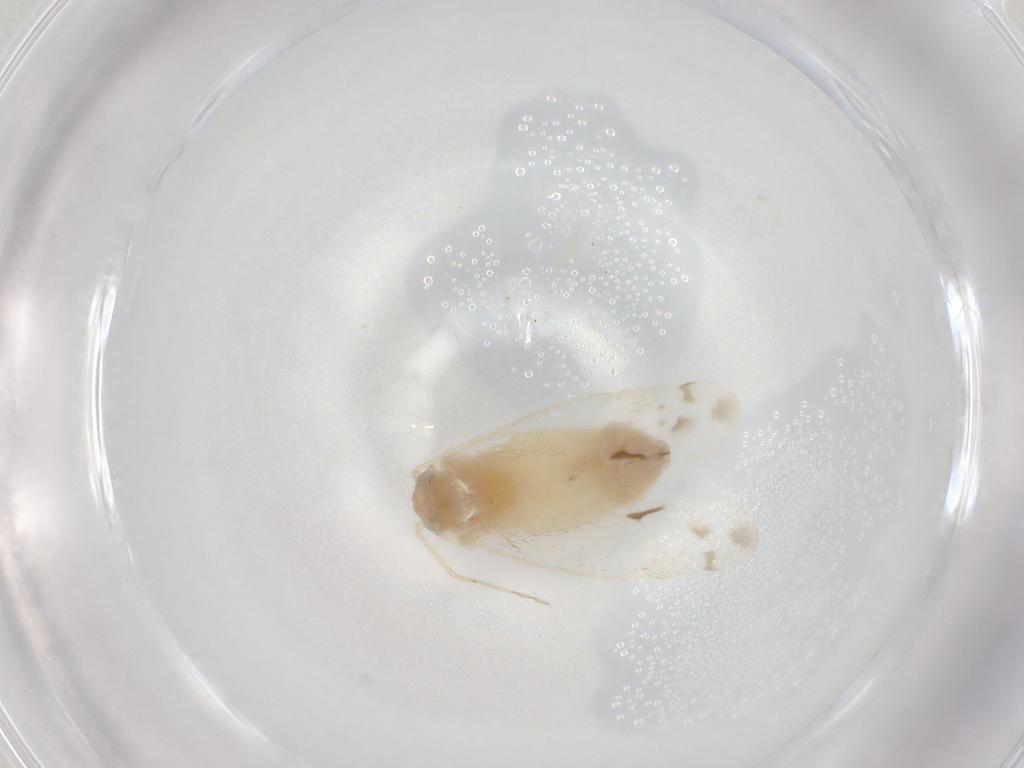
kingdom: Animalia
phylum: Arthropoda
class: Insecta
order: Hemiptera
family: Miridae
